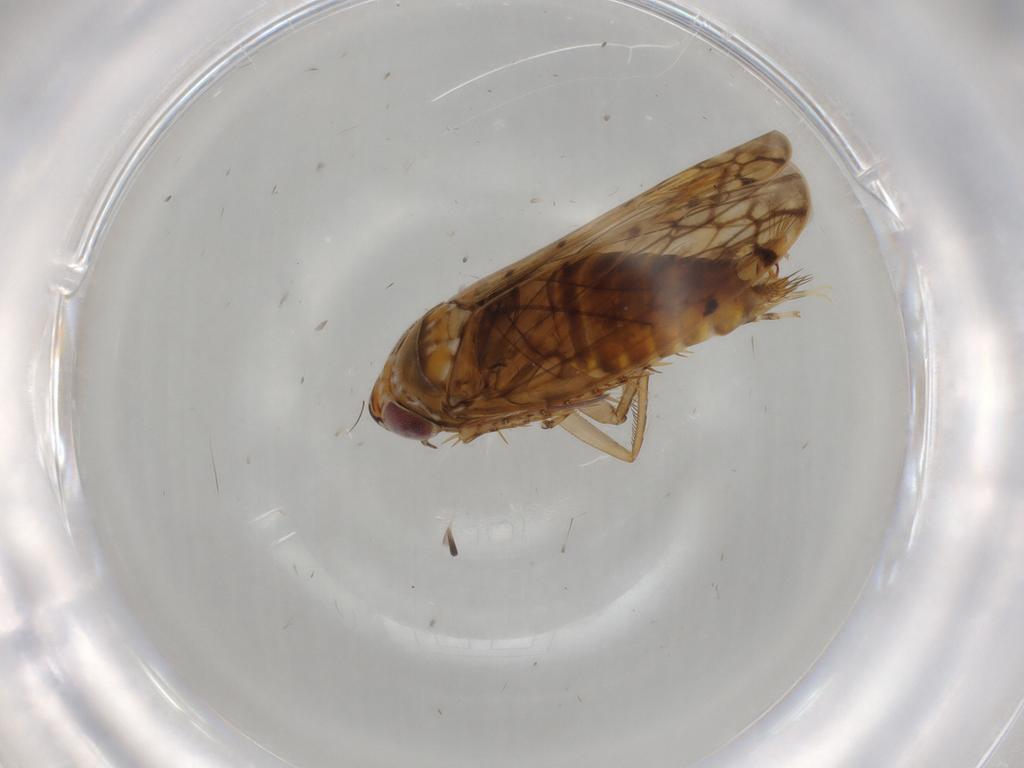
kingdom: Animalia
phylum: Arthropoda
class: Insecta
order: Hemiptera
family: Cicadellidae
